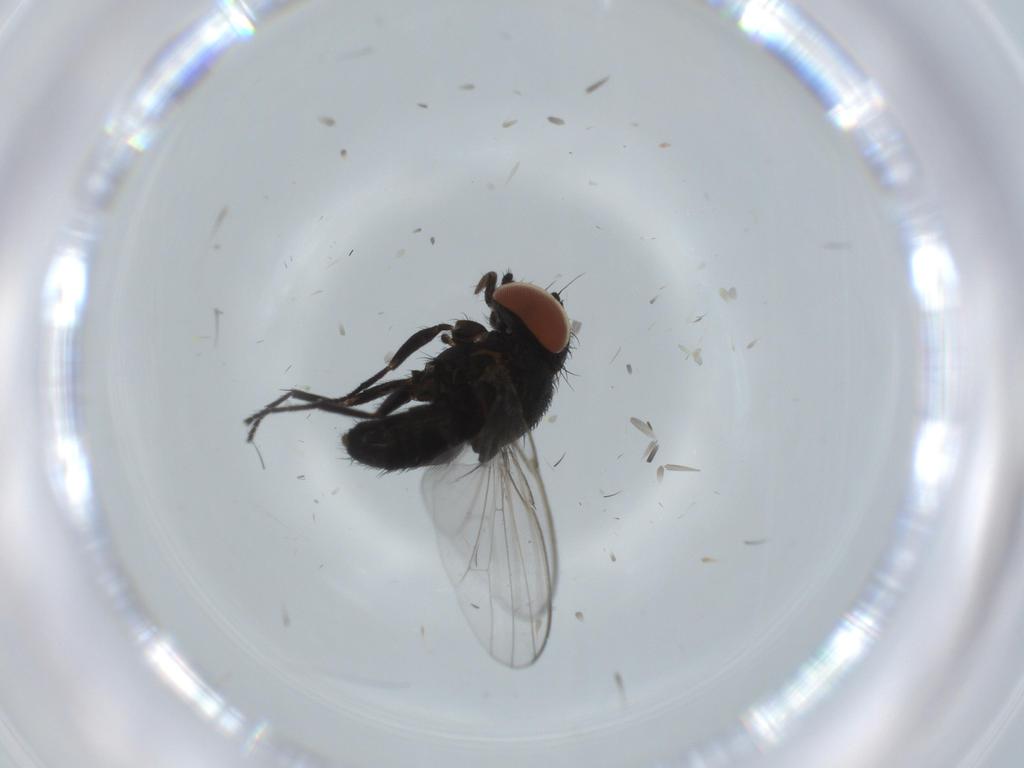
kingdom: Animalia
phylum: Arthropoda
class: Insecta
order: Diptera
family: Milichiidae
